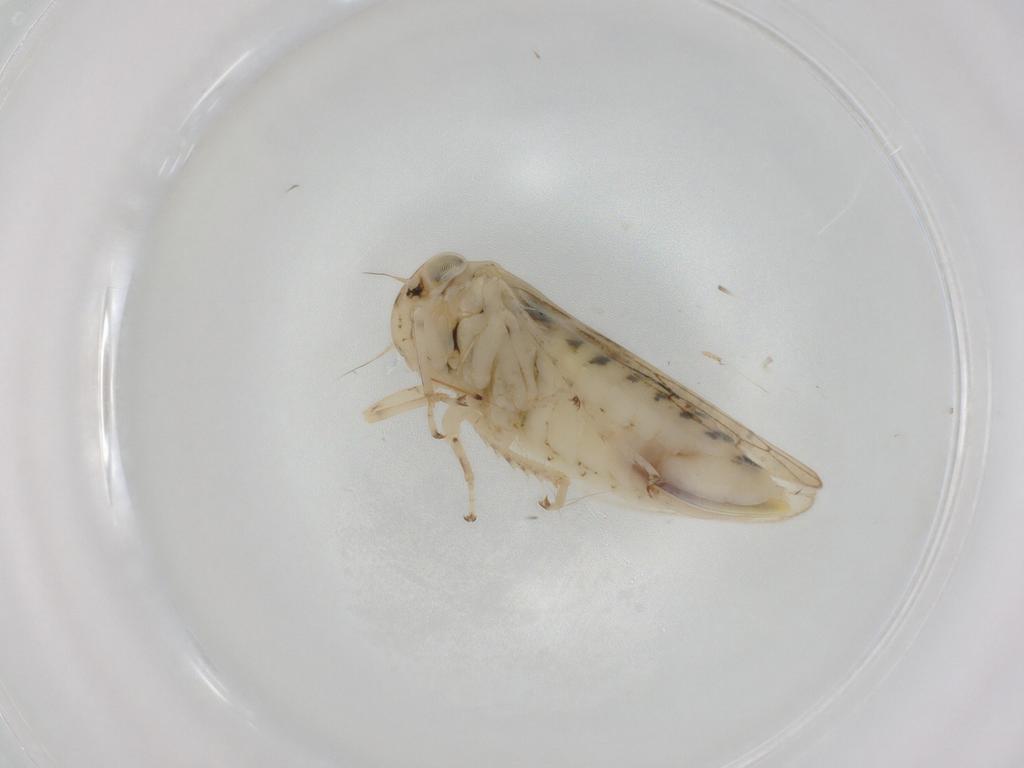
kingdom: Animalia
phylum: Arthropoda
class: Insecta
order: Hemiptera
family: Cicadellidae
